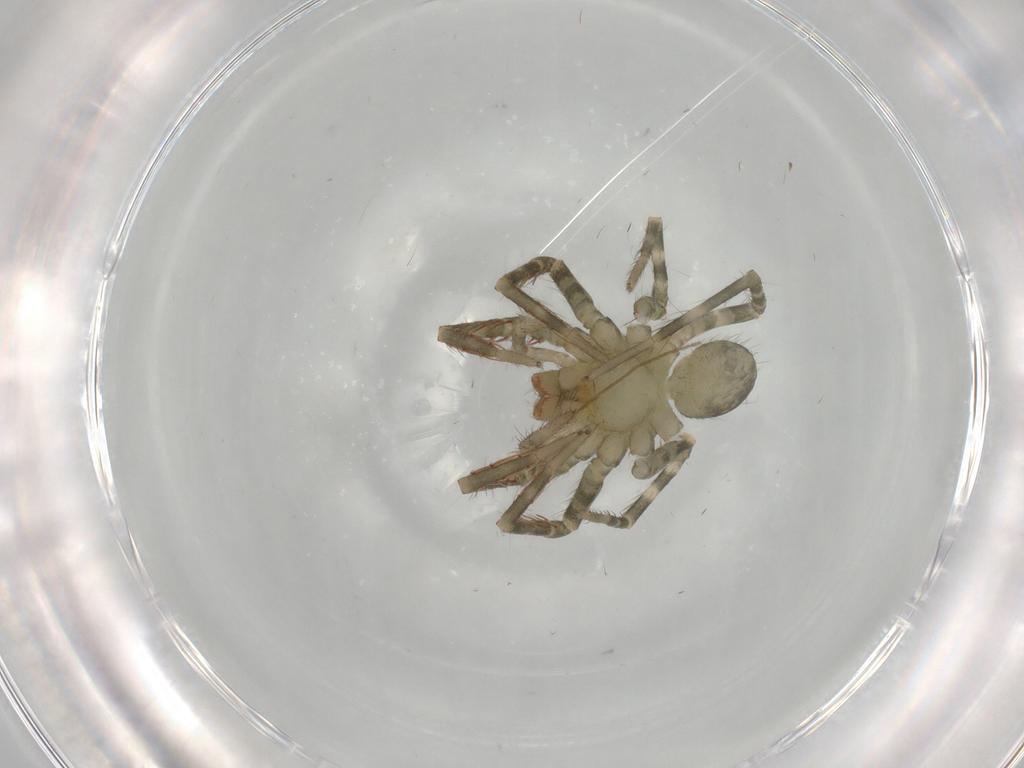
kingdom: Animalia
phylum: Arthropoda
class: Arachnida
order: Araneae
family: Ctenidae
